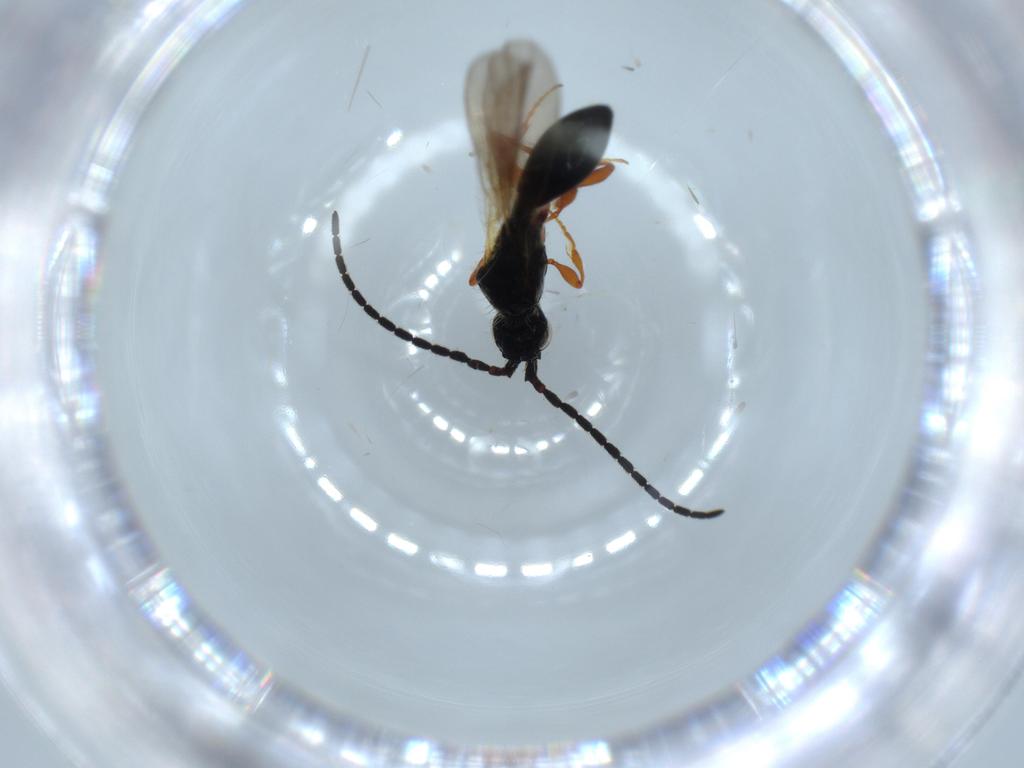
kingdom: Animalia
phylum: Arthropoda
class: Insecta
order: Hymenoptera
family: Diapriidae
